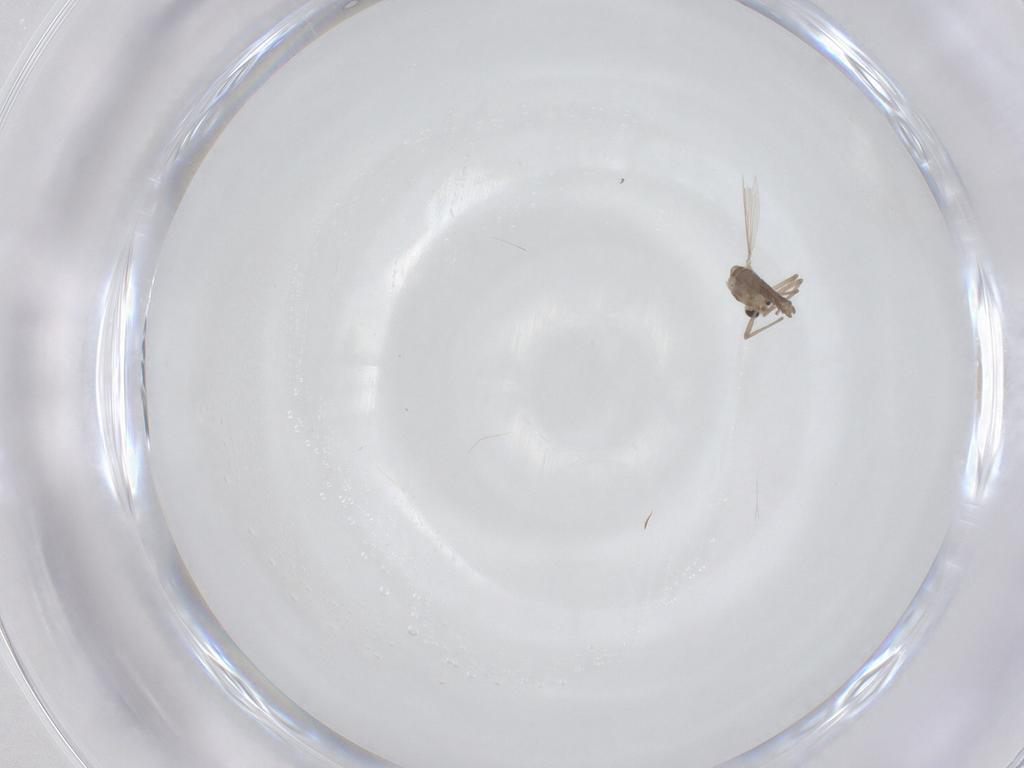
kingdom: Animalia
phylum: Arthropoda
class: Insecta
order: Diptera
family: Chironomidae
